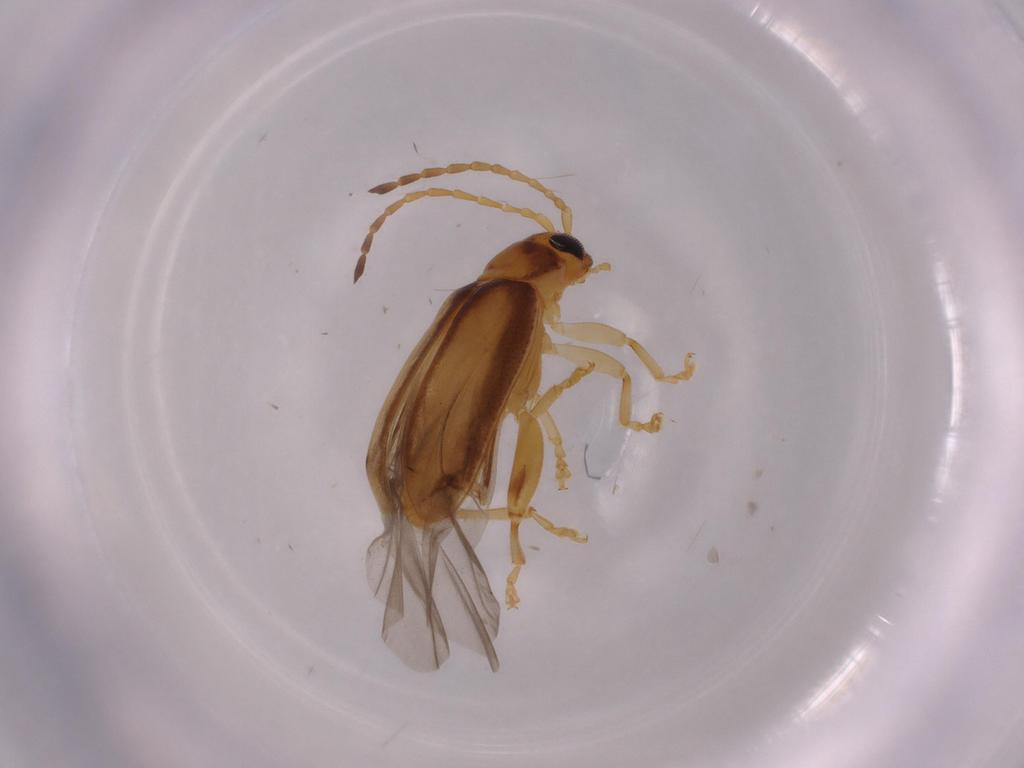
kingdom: Animalia
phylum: Arthropoda
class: Insecta
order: Coleoptera
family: Chrysomelidae
